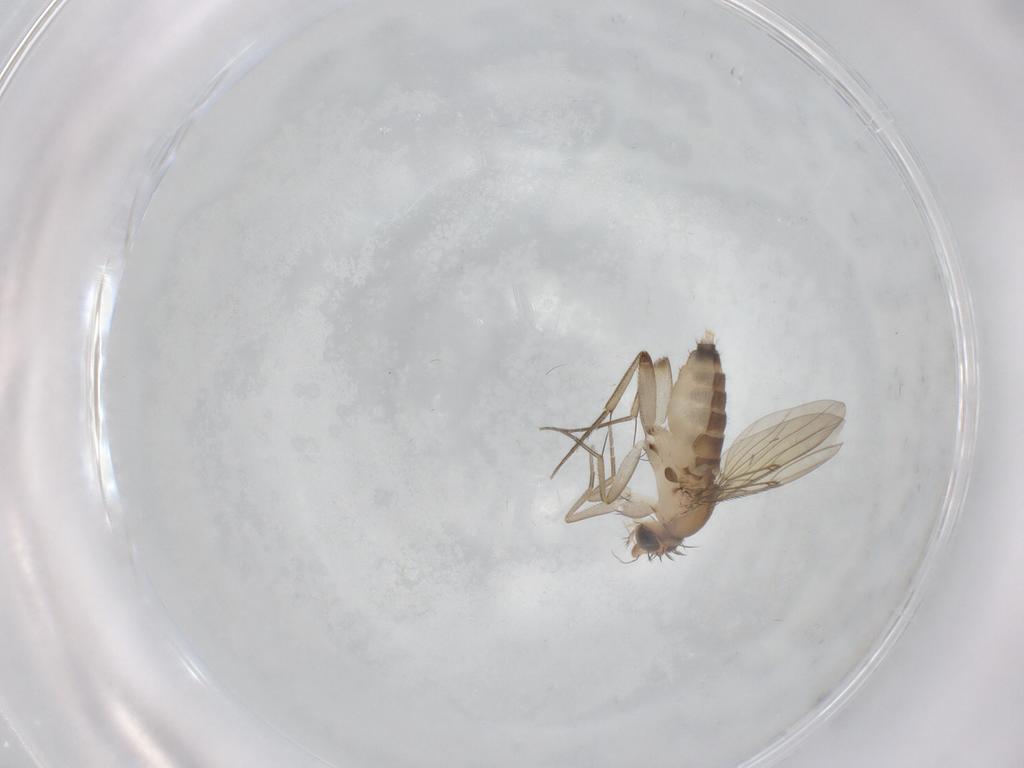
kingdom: Animalia
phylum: Arthropoda
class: Insecta
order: Diptera
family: Phoridae
